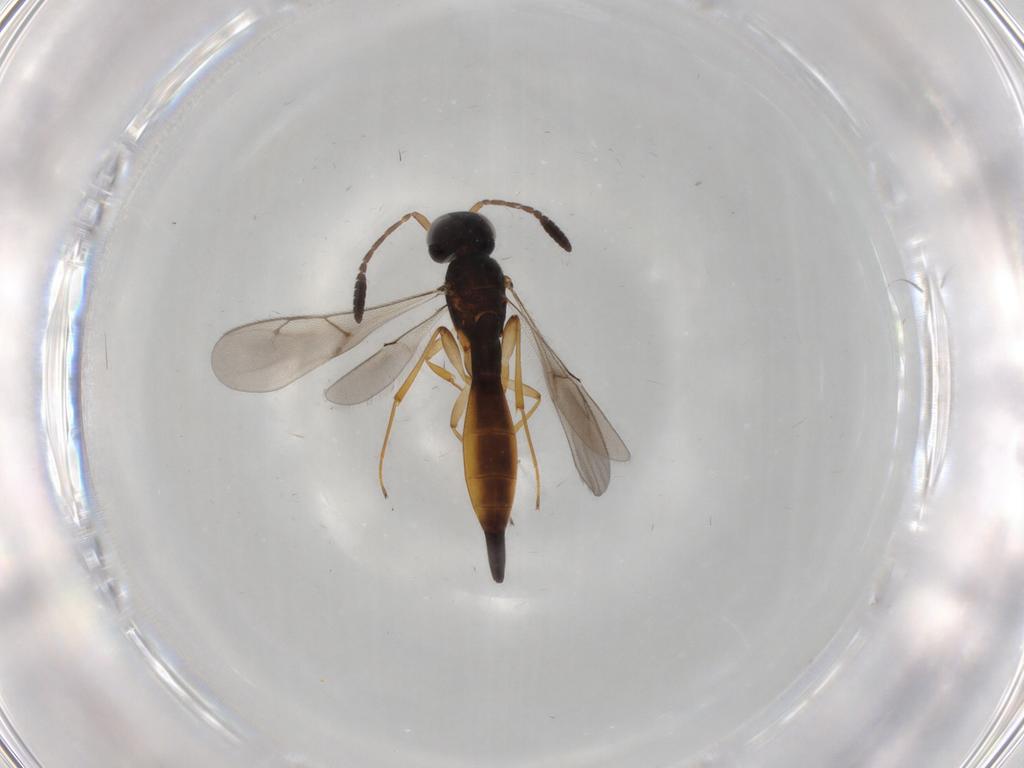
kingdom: Animalia
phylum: Arthropoda
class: Insecta
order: Hymenoptera
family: Scelionidae
